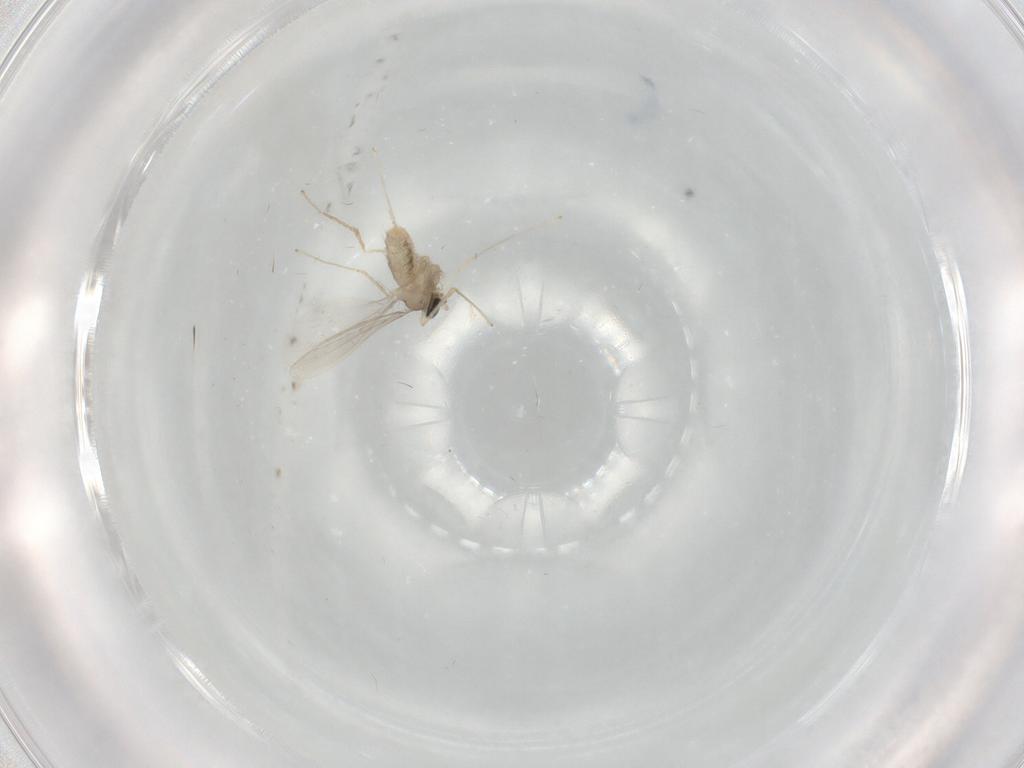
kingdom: Animalia
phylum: Arthropoda
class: Insecta
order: Diptera
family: Cecidomyiidae
